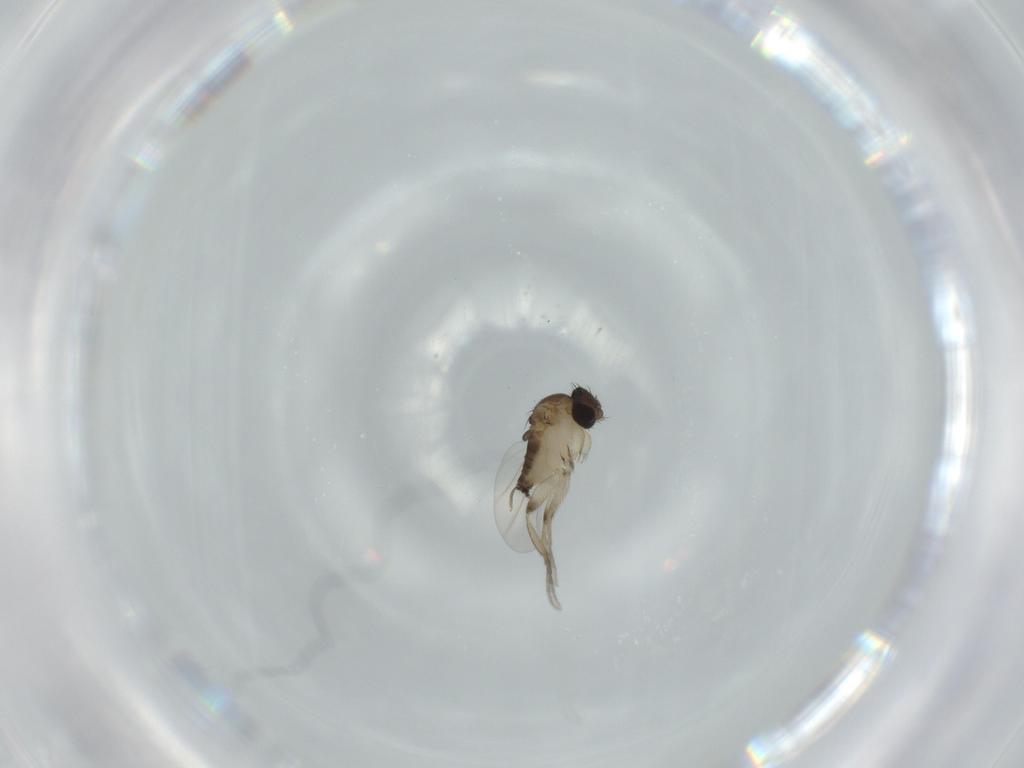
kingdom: Animalia
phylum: Arthropoda
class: Insecta
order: Diptera
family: Phoridae
